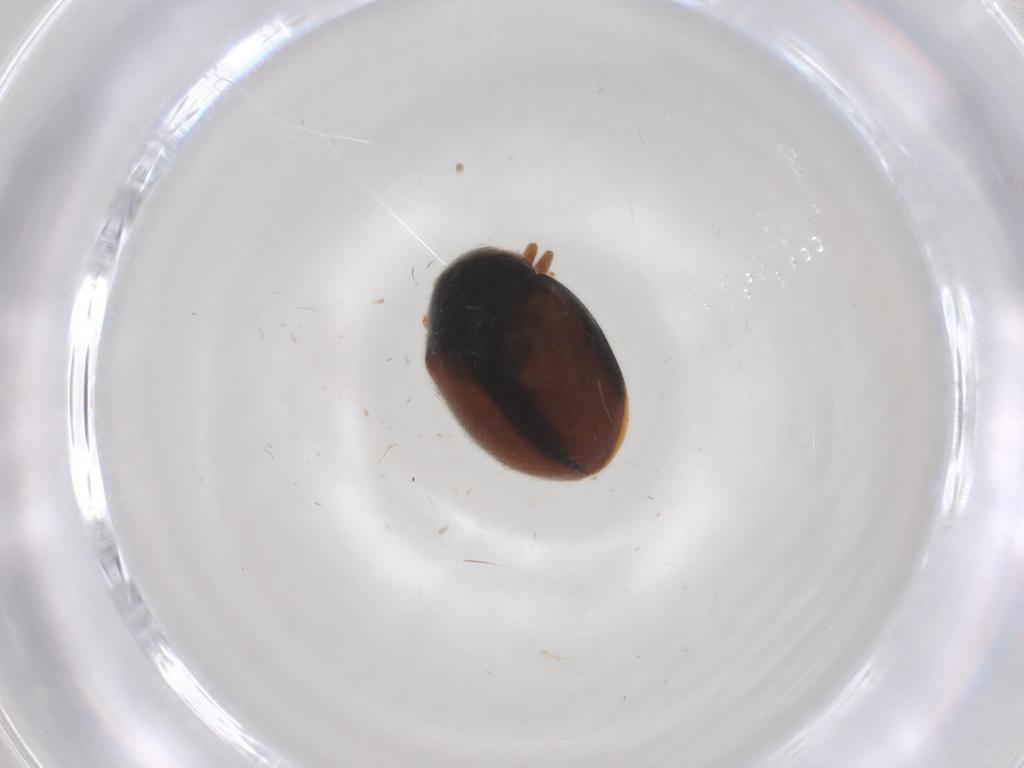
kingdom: Animalia
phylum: Arthropoda
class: Insecta
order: Coleoptera
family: Coccinellidae
